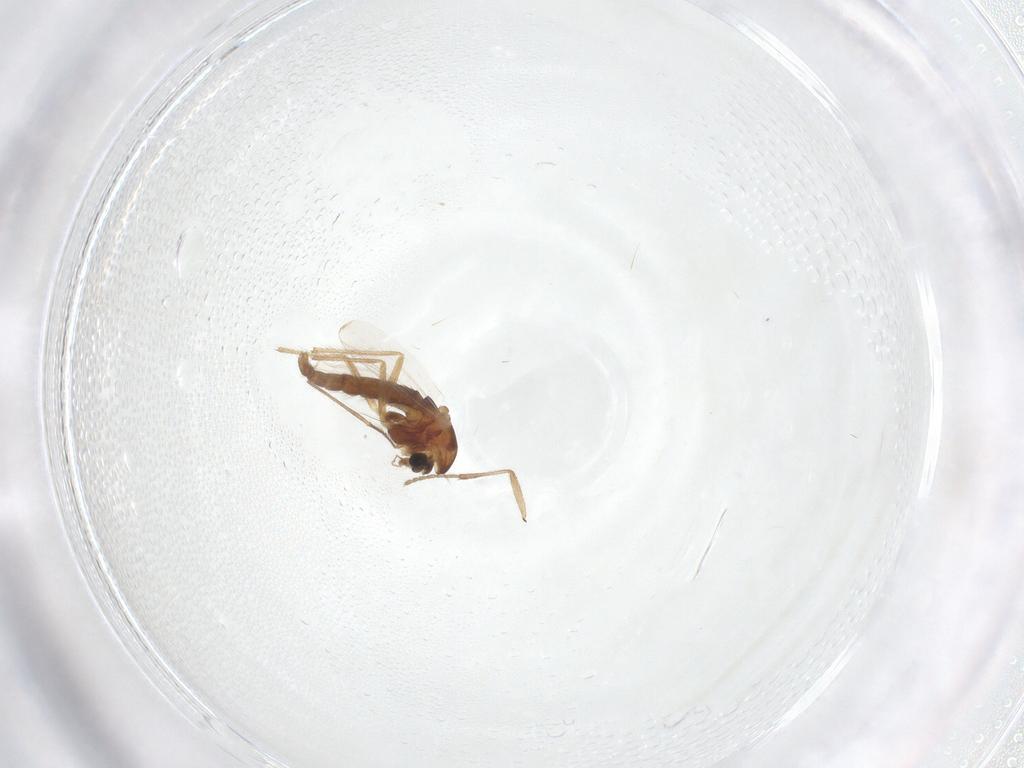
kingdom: Animalia
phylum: Arthropoda
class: Insecta
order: Diptera
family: Chironomidae
